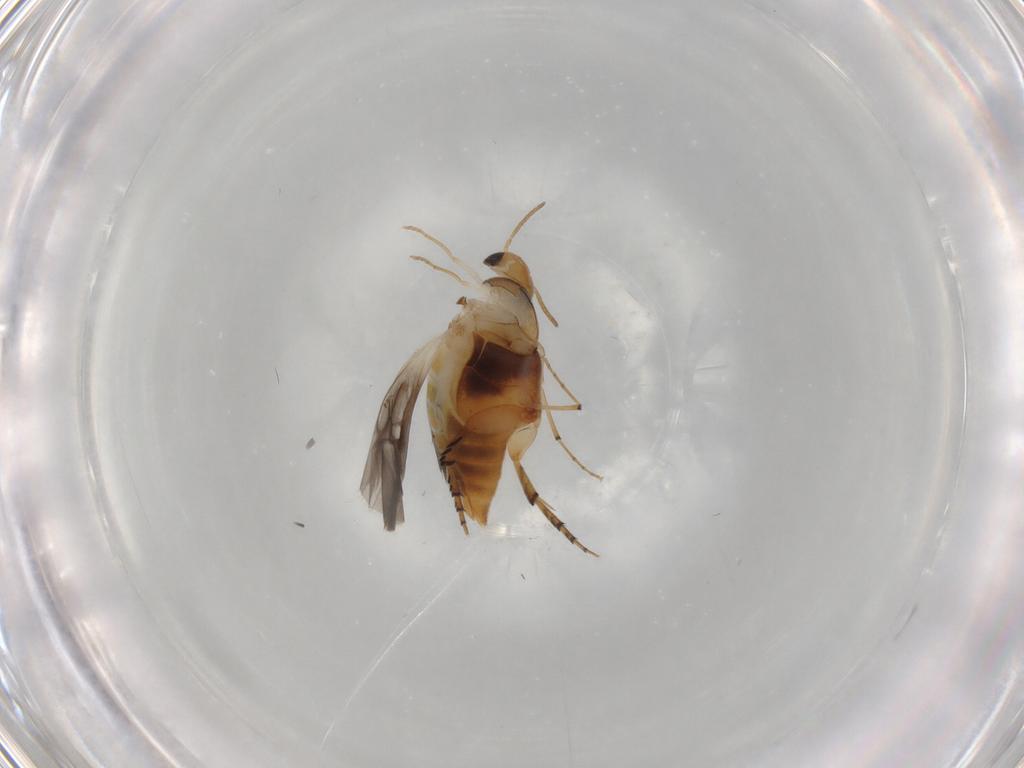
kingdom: Animalia
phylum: Arthropoda
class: Insecta
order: Coleoptera
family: Mordellidae
